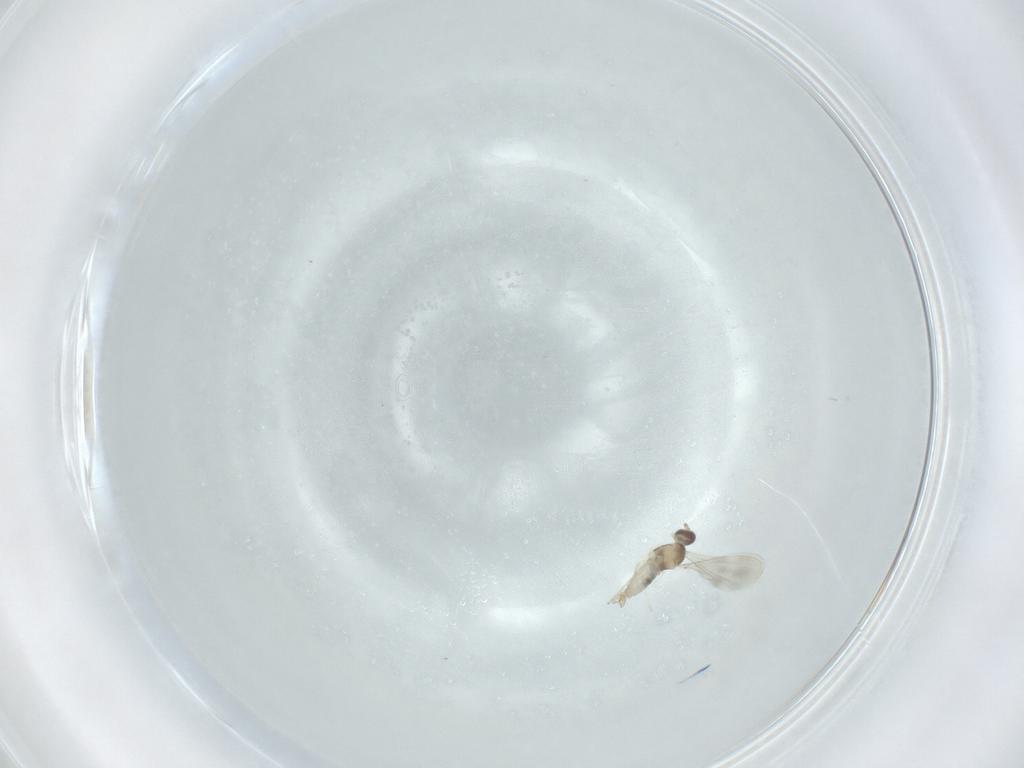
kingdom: Animalia
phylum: Arthropoda
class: Insecta
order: Diptera
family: Cecidomyiidae
